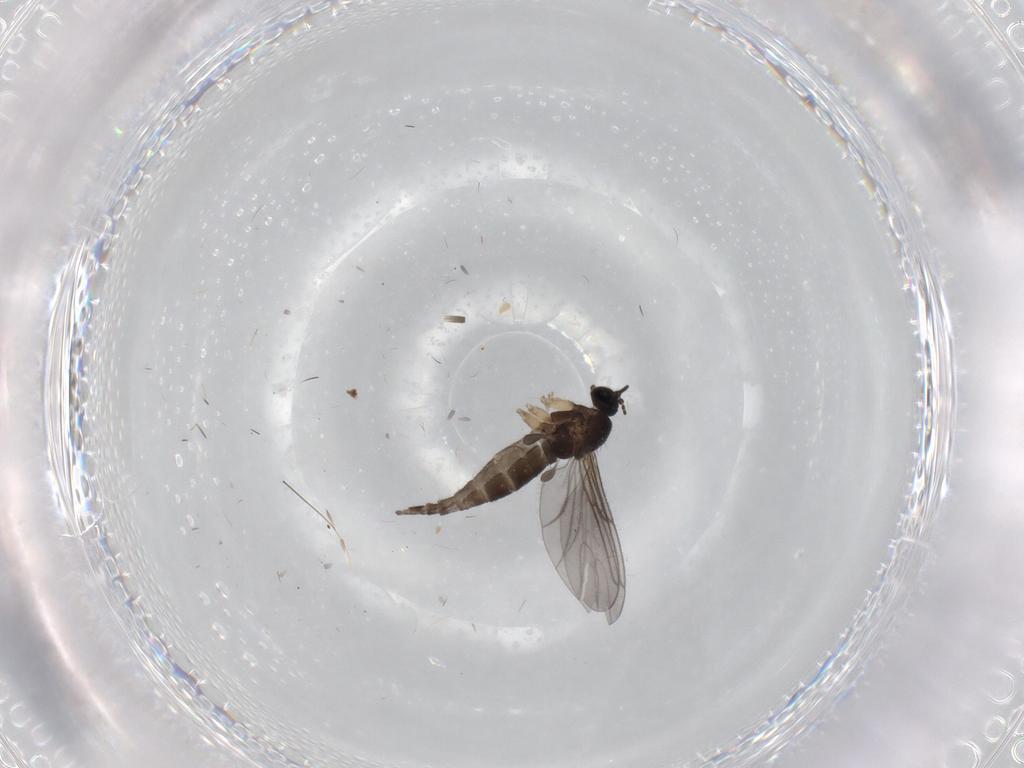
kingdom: Animalia
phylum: Arthropoda
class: Insecta
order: Diptera
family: Sciaridae
